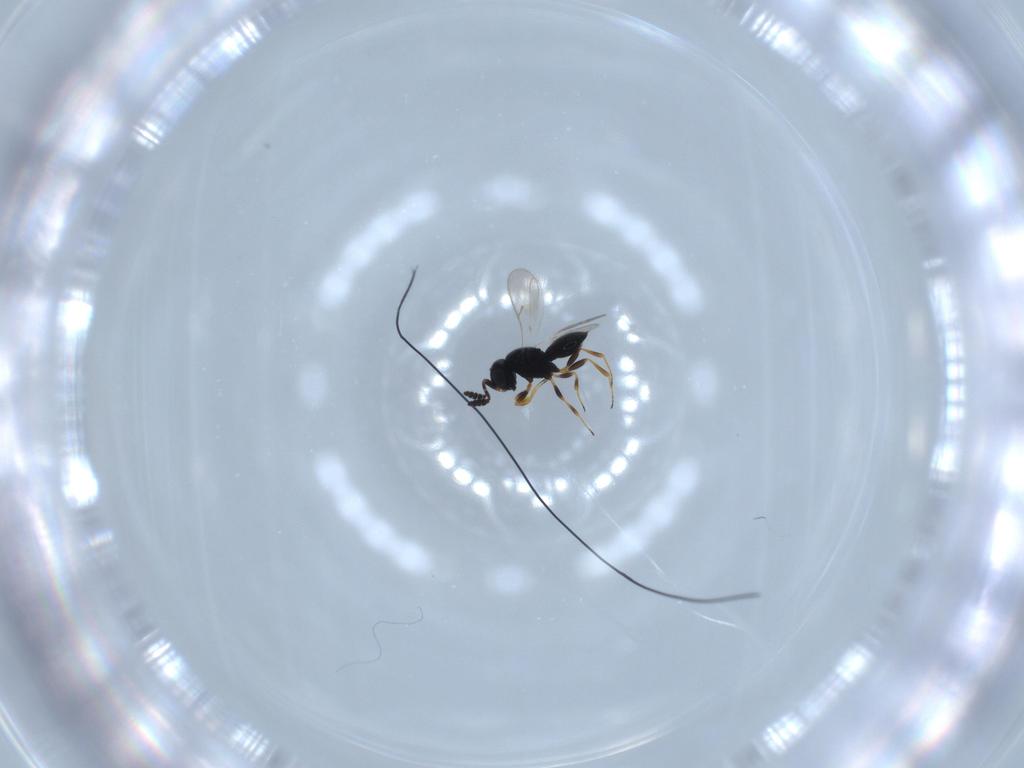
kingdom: Animalia
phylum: Arthropoda
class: Insecta
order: Hymenoptera
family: Scelionidae
